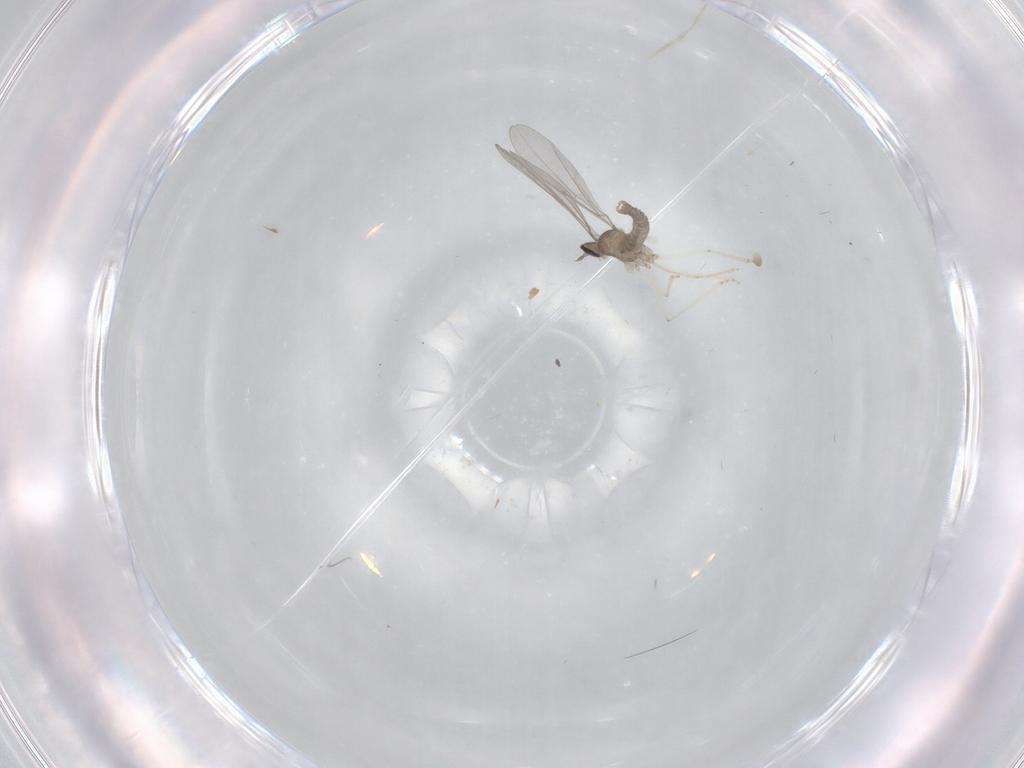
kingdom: Animalia
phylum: Arthropoda
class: Insecta
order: Diptera
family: Cecidomyiidae
